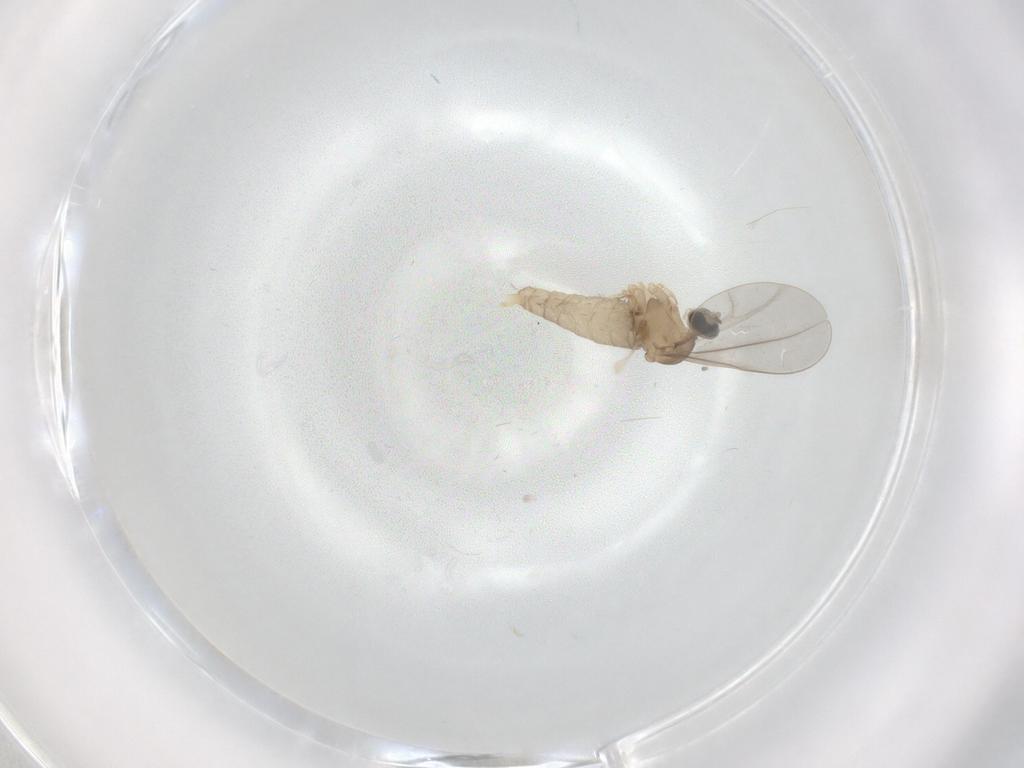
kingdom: Animalia
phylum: Arthropoda
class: Insecta
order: Diptera
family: Cecidomyiidae
